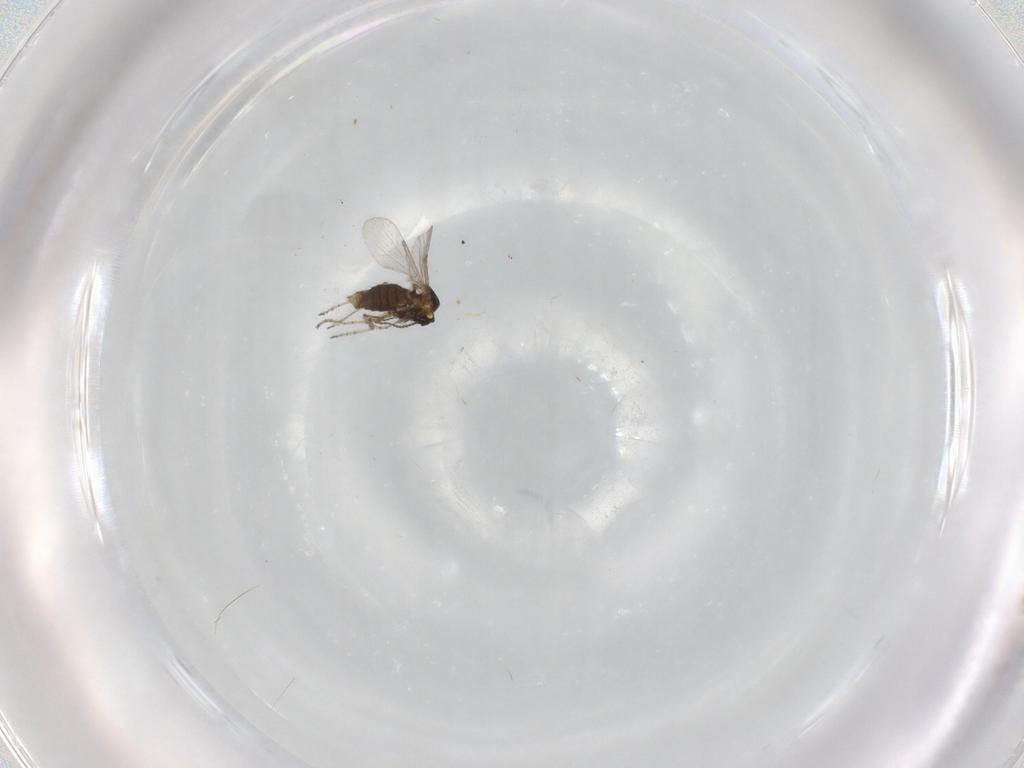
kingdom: Animalia
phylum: Arthropoda
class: Insecta
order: Diptera
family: Ceratopogonidae
